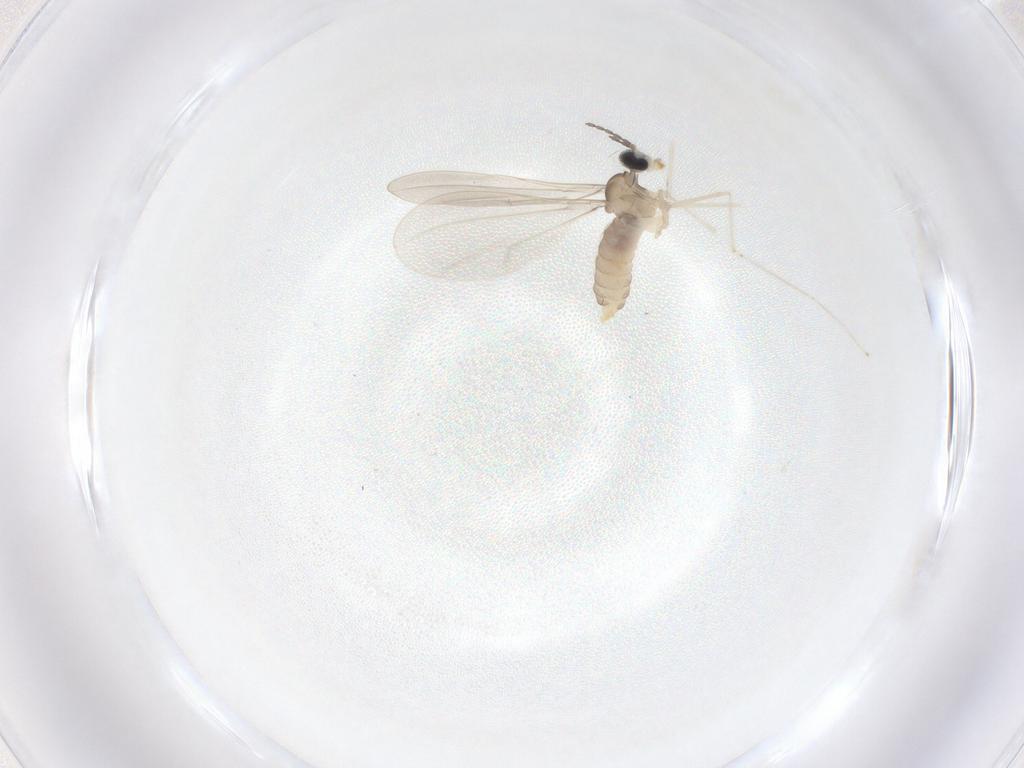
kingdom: Animalia
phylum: Arthropoda
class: Insecta
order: Diptera
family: Cecidomyiidae
